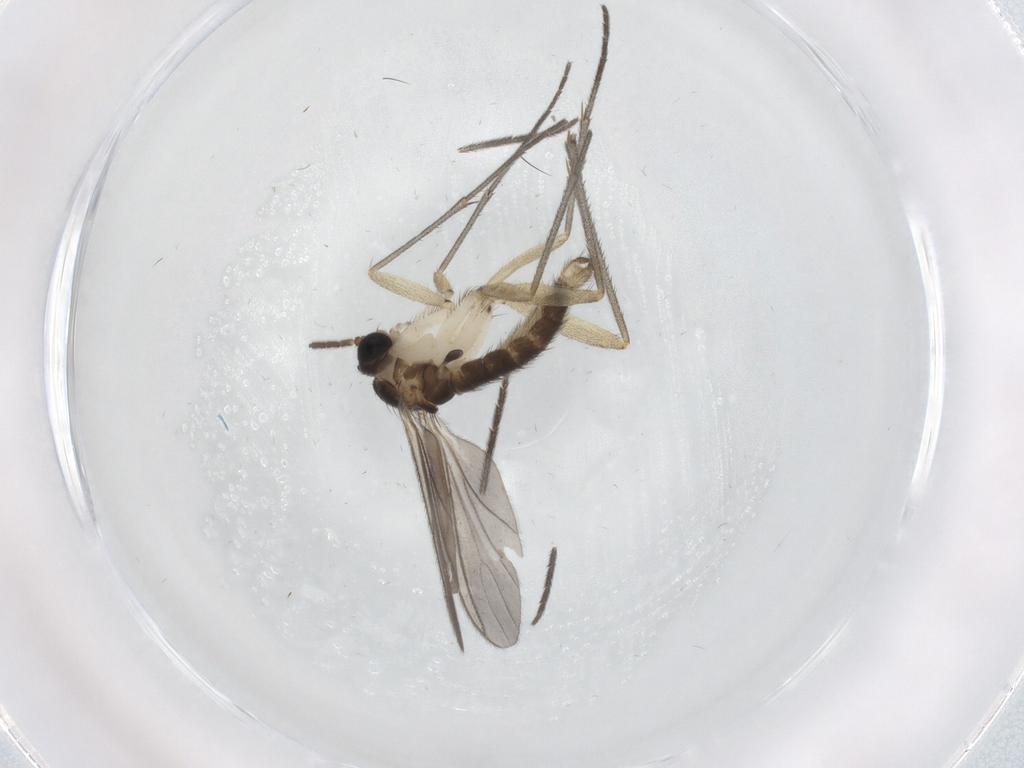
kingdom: Animalia
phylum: Arthropoda
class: Insecta
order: Diptera
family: Sciaridae
